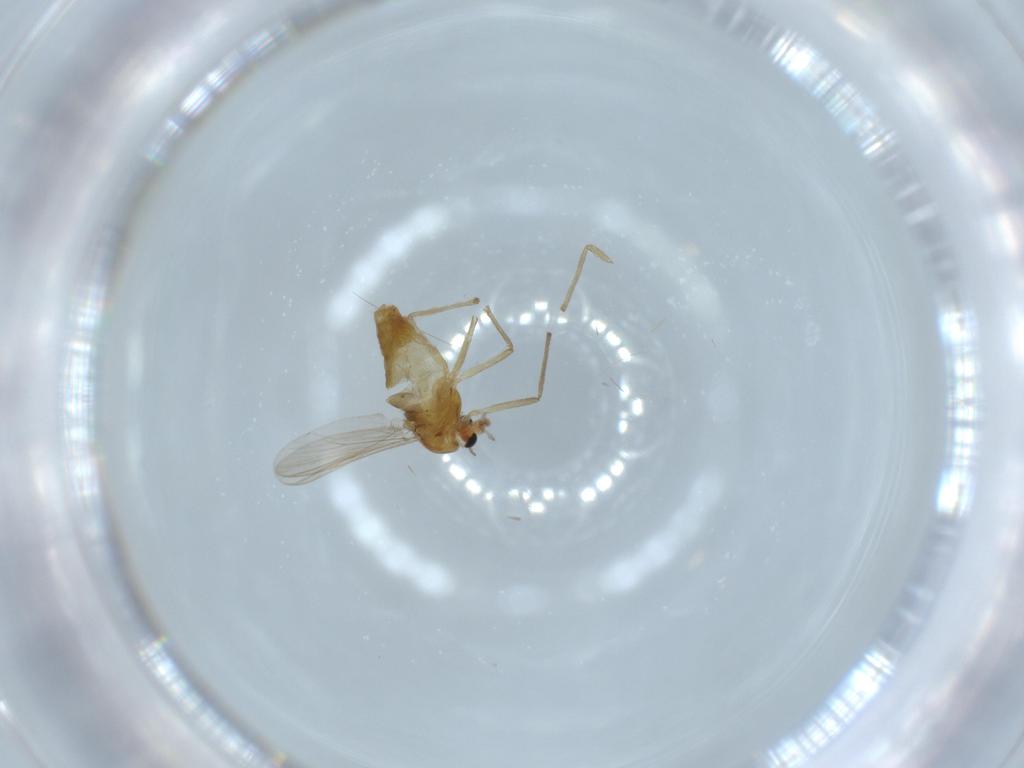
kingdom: Animalia
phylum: Arthropoda
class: Insecta
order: Diptera
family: Chironomidae
